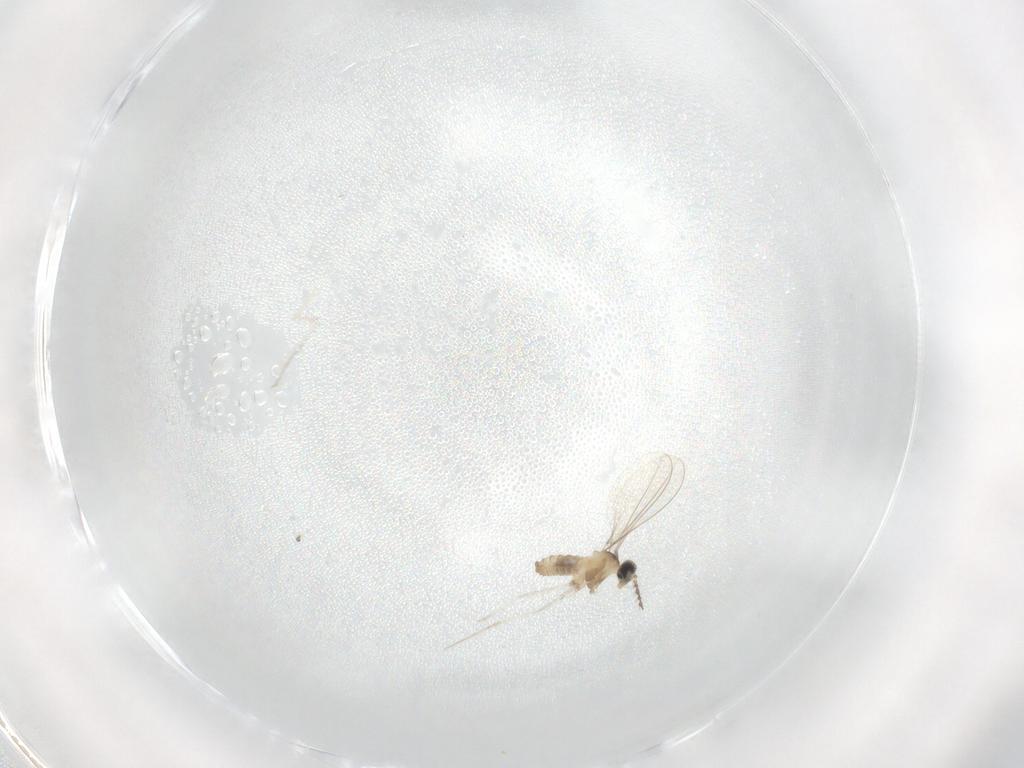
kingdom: Animalia
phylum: Arthropoda
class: Insecta
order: Diptera
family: Cecidomyiidae
